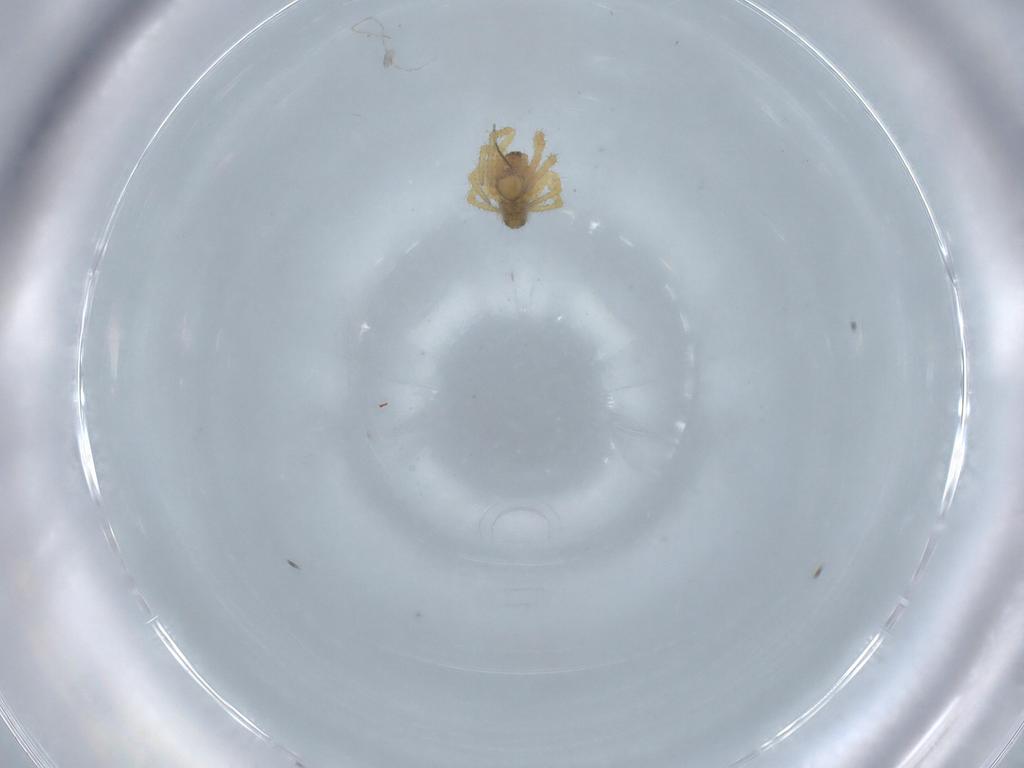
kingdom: Animalia
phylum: Arthropoda
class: Arachnida
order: Araneae
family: Theridiidae
